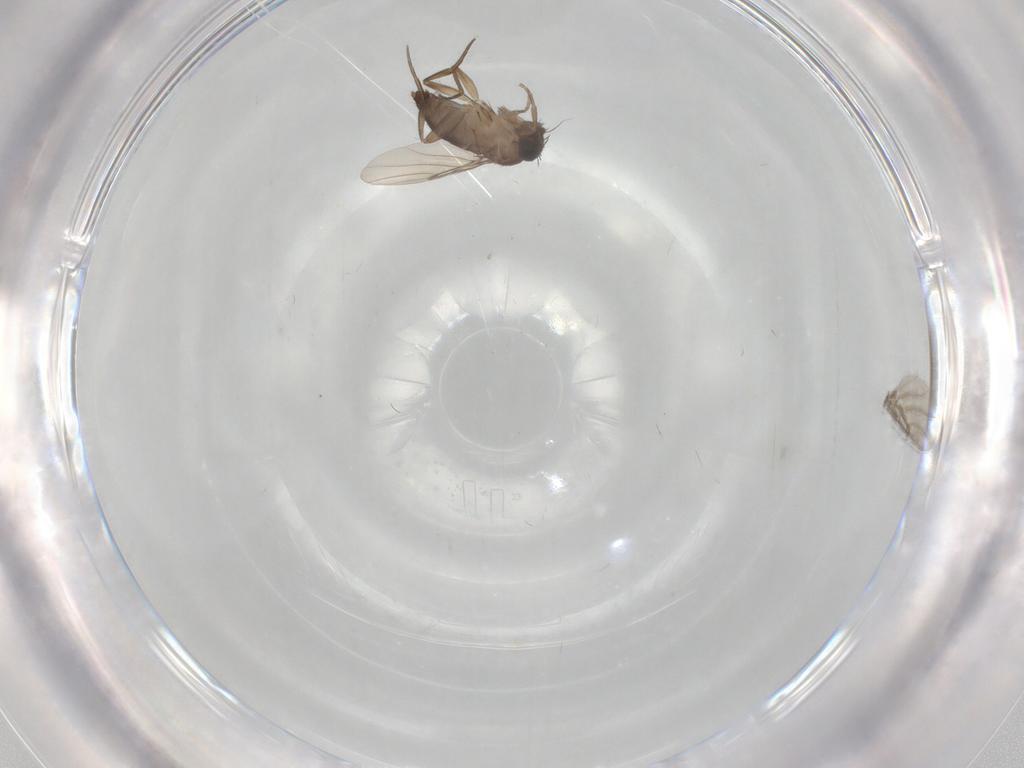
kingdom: Animalia
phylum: Arthropoda
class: Insecta
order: Diptera
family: Phoridae
